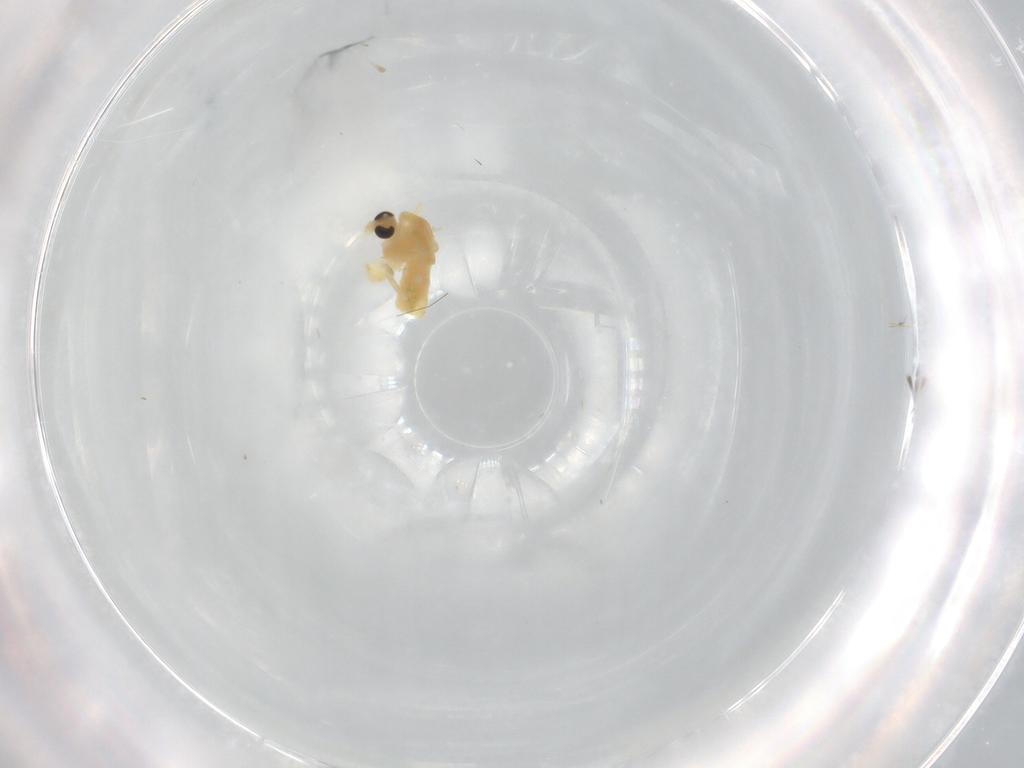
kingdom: Animalia
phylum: Arthropoda
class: Insecta
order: Diptera
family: Chironomidae
